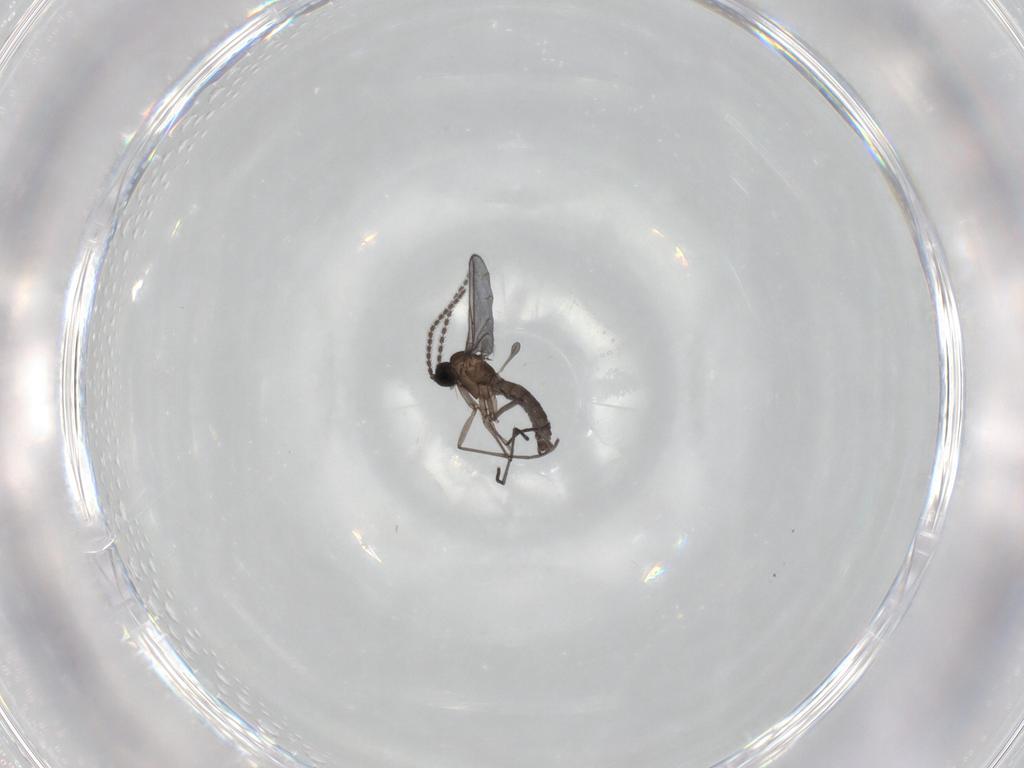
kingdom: Animalia
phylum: Arthropoda
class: Insecta
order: Diptera
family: Sciaridae
